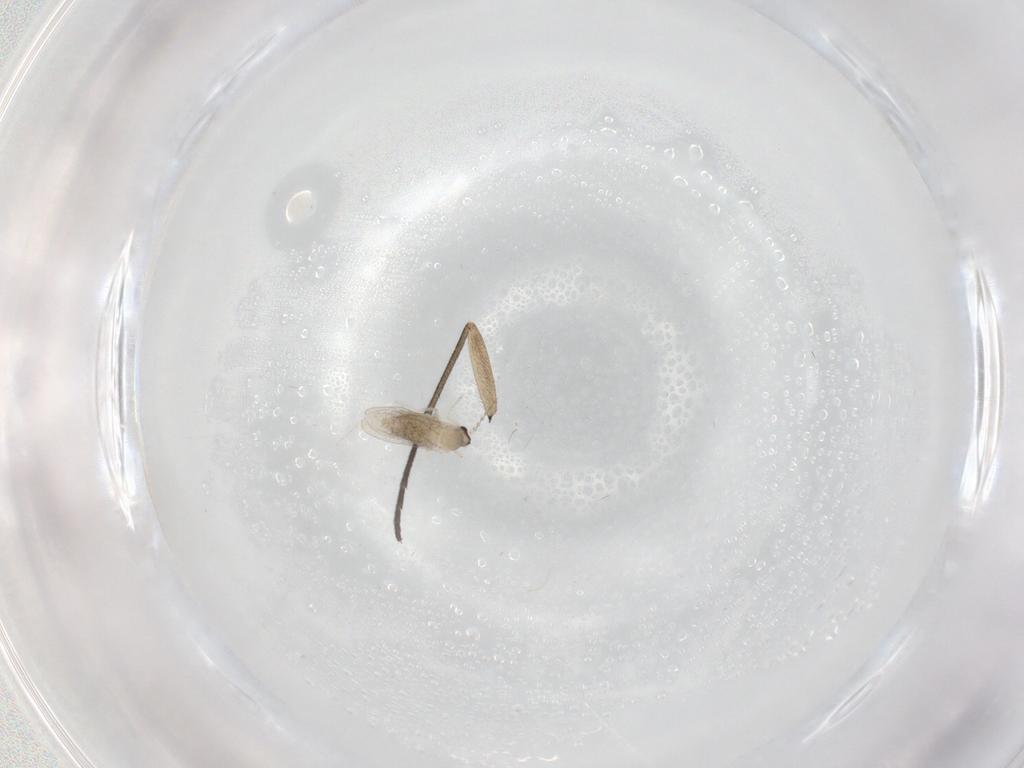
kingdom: Animalia
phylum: Arthropoda
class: Insecta
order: Diptera
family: Sciaridae
